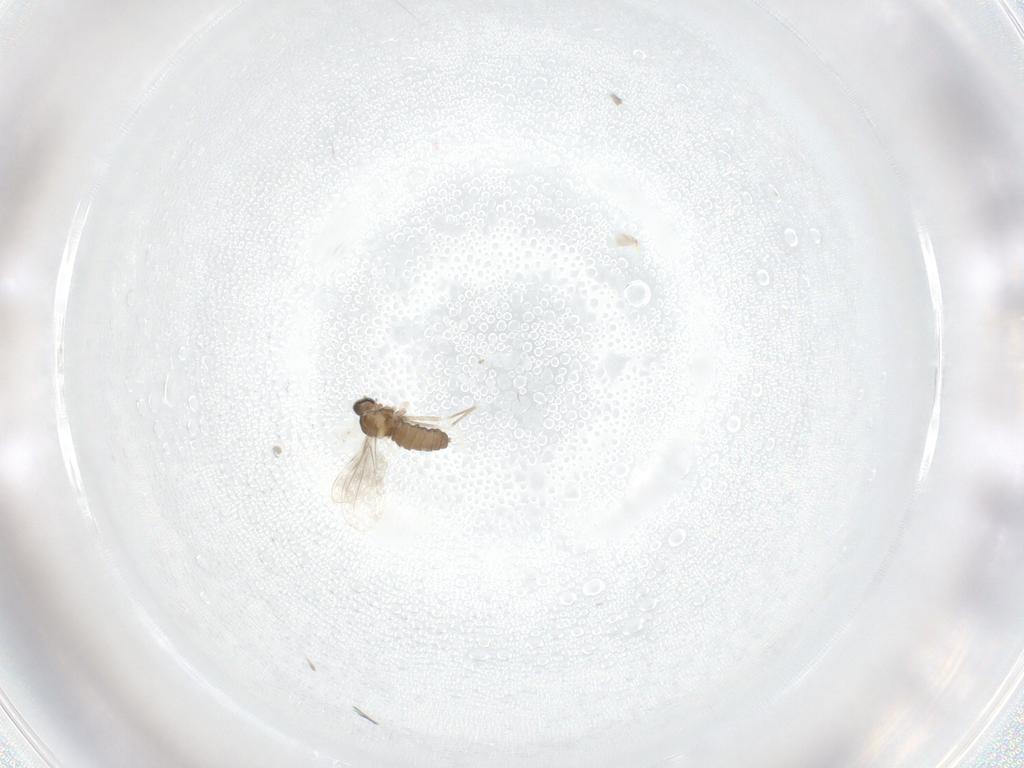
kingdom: Animalia
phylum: Arthropoda
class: Insecta
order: Diptera
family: Cecidomyiidae
